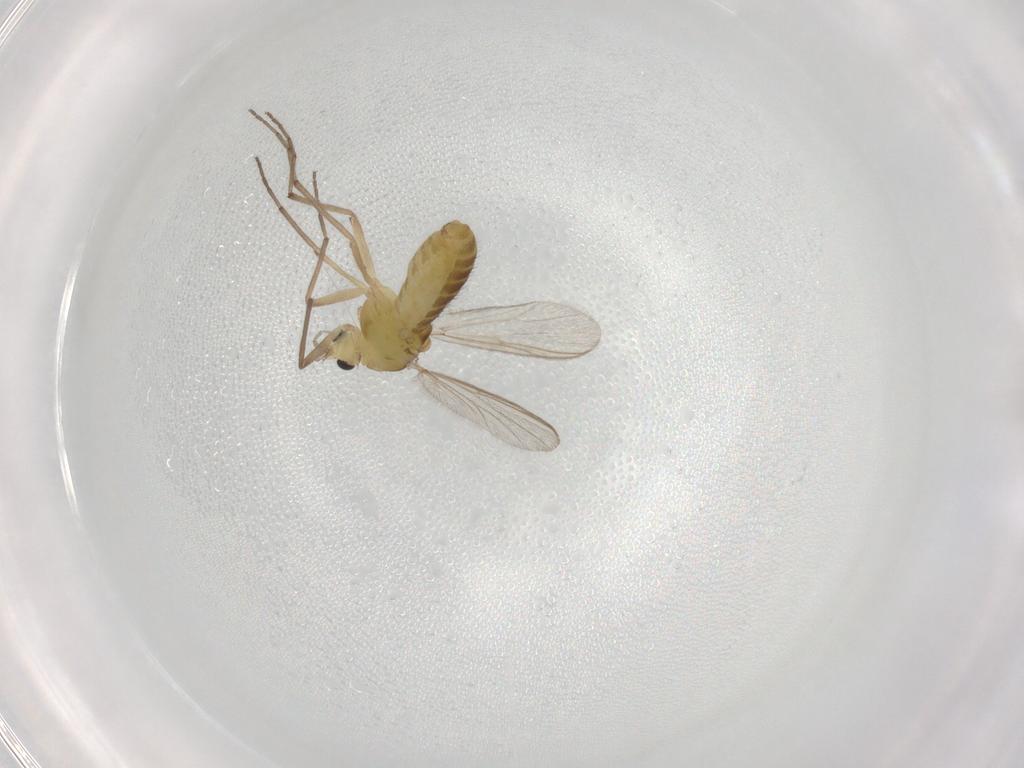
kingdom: Animalia
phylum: Arthropoda
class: Insecta
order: Diptera
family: Chironomidae
